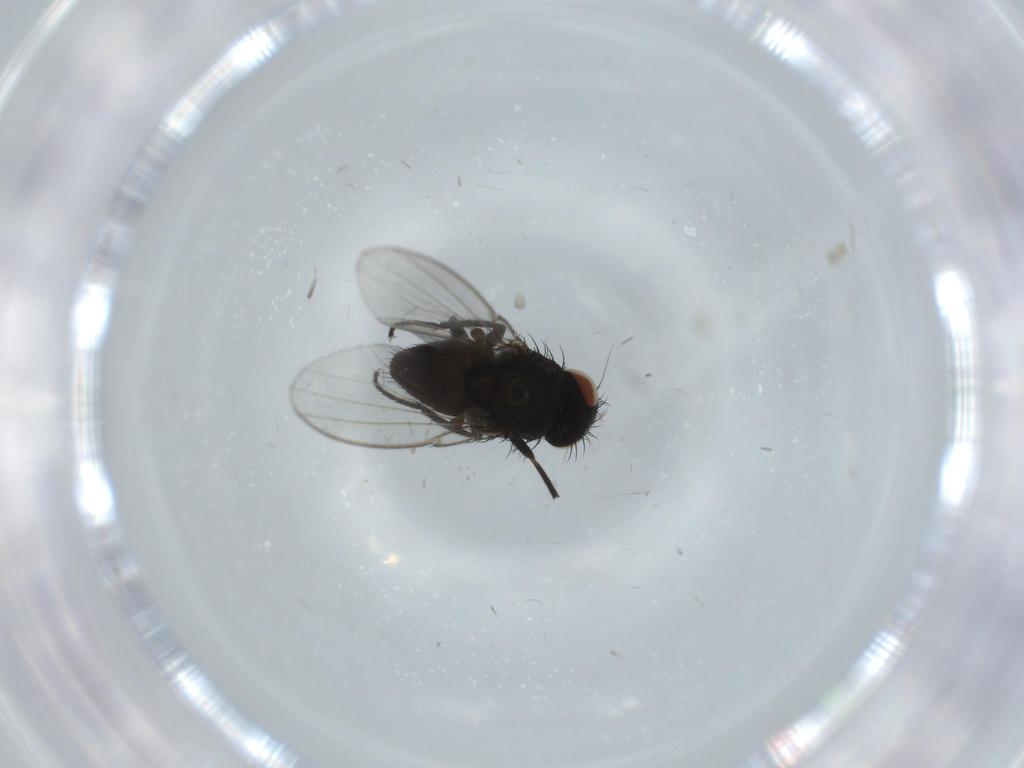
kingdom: Animalia
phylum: Arthropoda
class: Insecta
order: Diptera
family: Milichiidae
